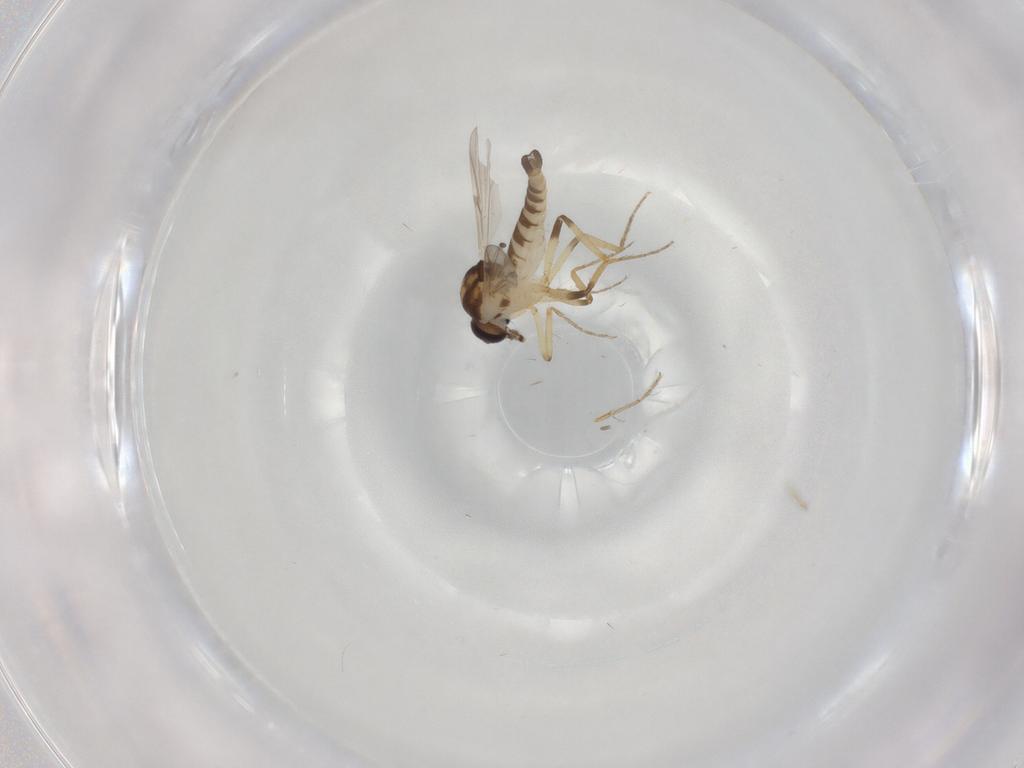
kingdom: Animalia
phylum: Arthropoda
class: Insecta
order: Diptera
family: Ceratopogonidae
